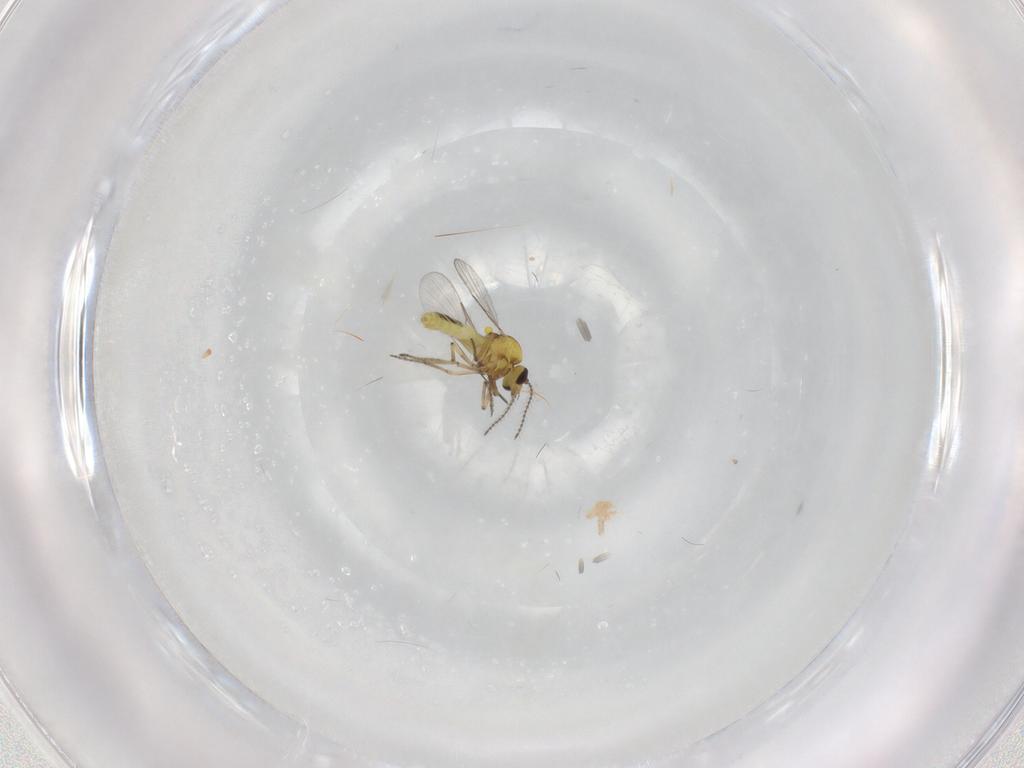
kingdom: Animalia
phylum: Arthropoda
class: Insecta
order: Diptera
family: Ceratopogonidae
